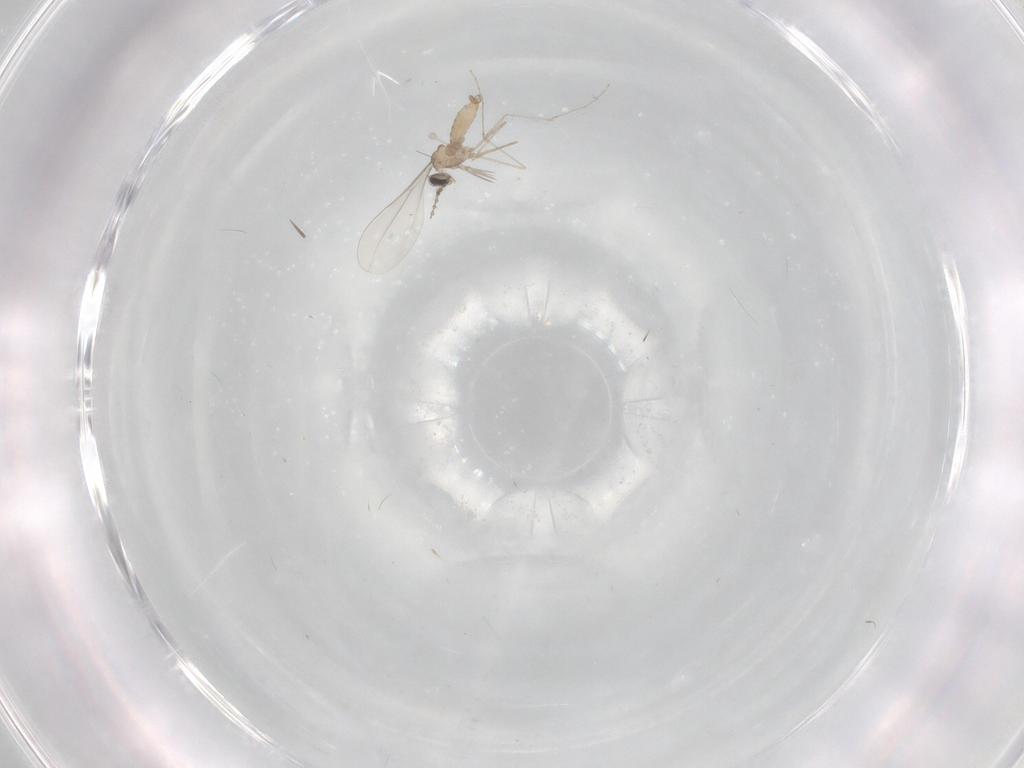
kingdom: Animalia
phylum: Arthropoda
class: Insecta
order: Diptera
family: Cecidomyiidae
